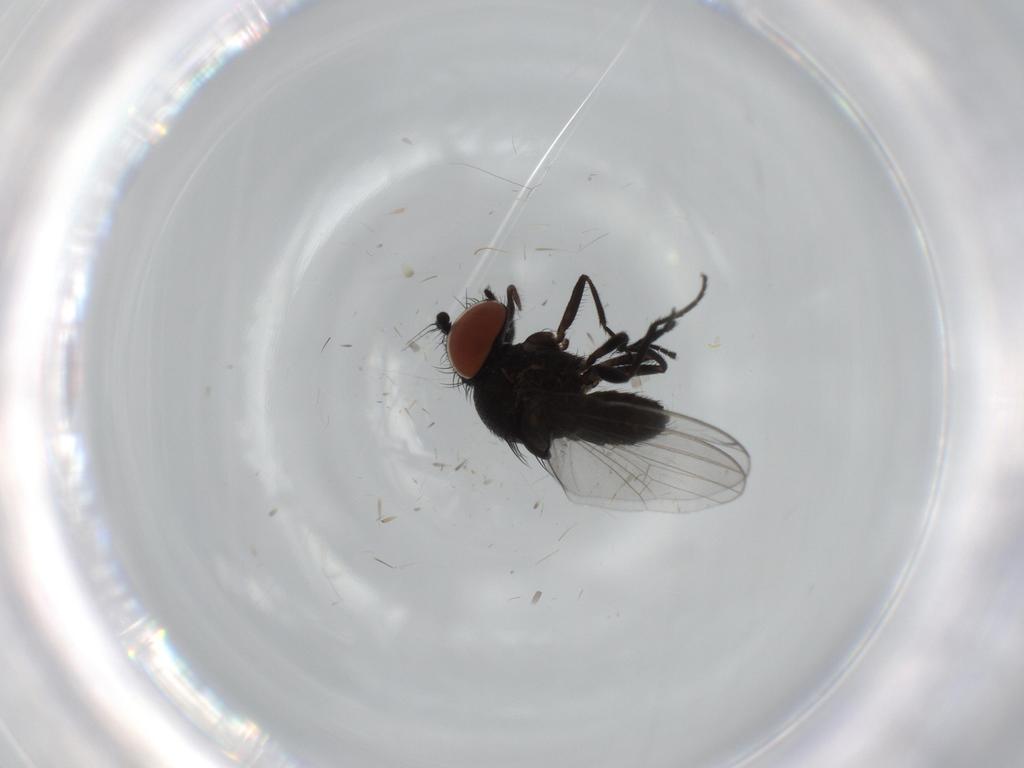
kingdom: Animalia
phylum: Arthropoda
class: Insecta
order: Diptera
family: Milichiidae
